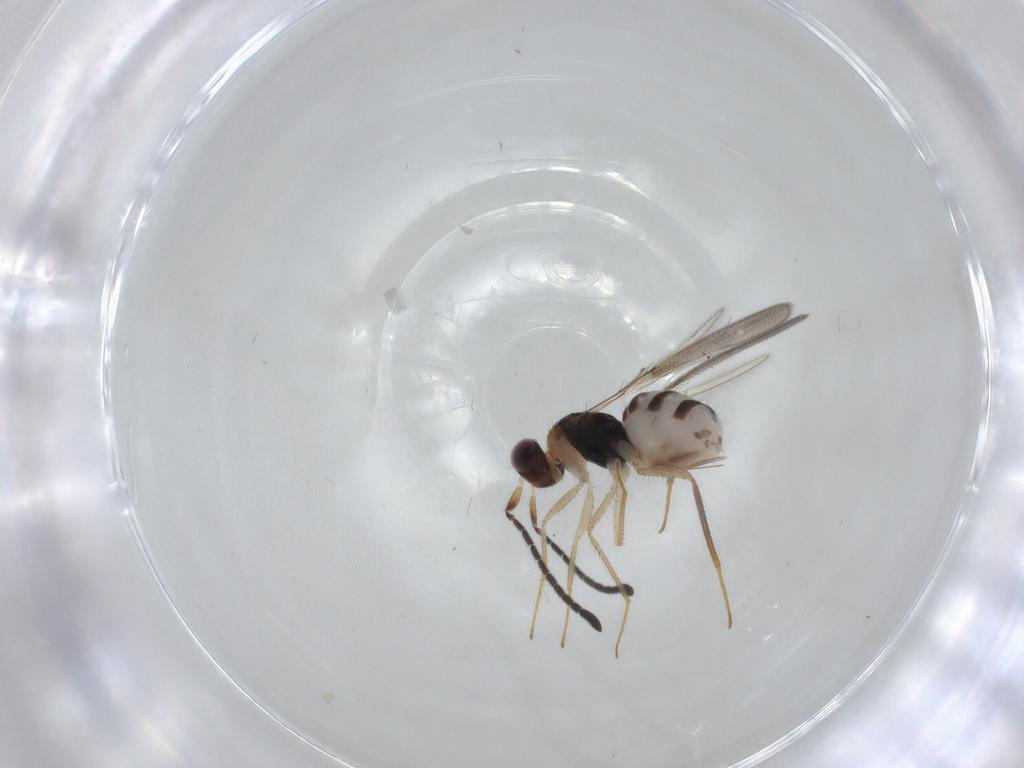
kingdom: Animalia
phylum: Arthropoda
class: Insecta
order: Hymenoptera
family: Mymaridae
